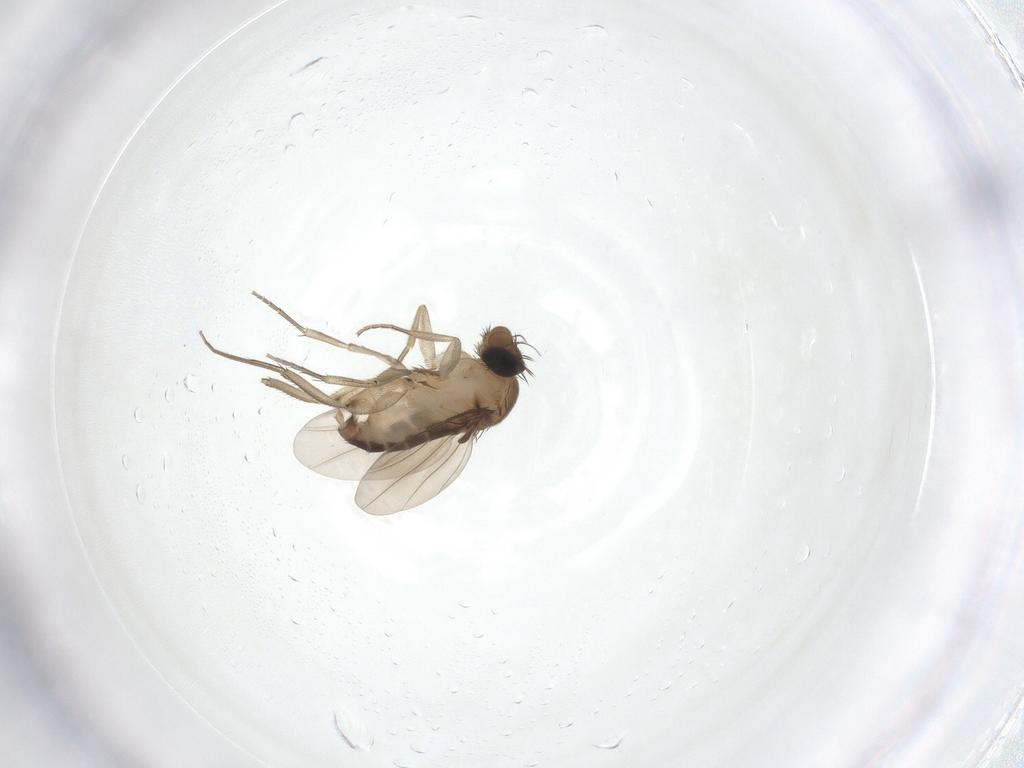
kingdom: Animalia
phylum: Arthropoda
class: Insecta
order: Diptera
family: Phoridae
